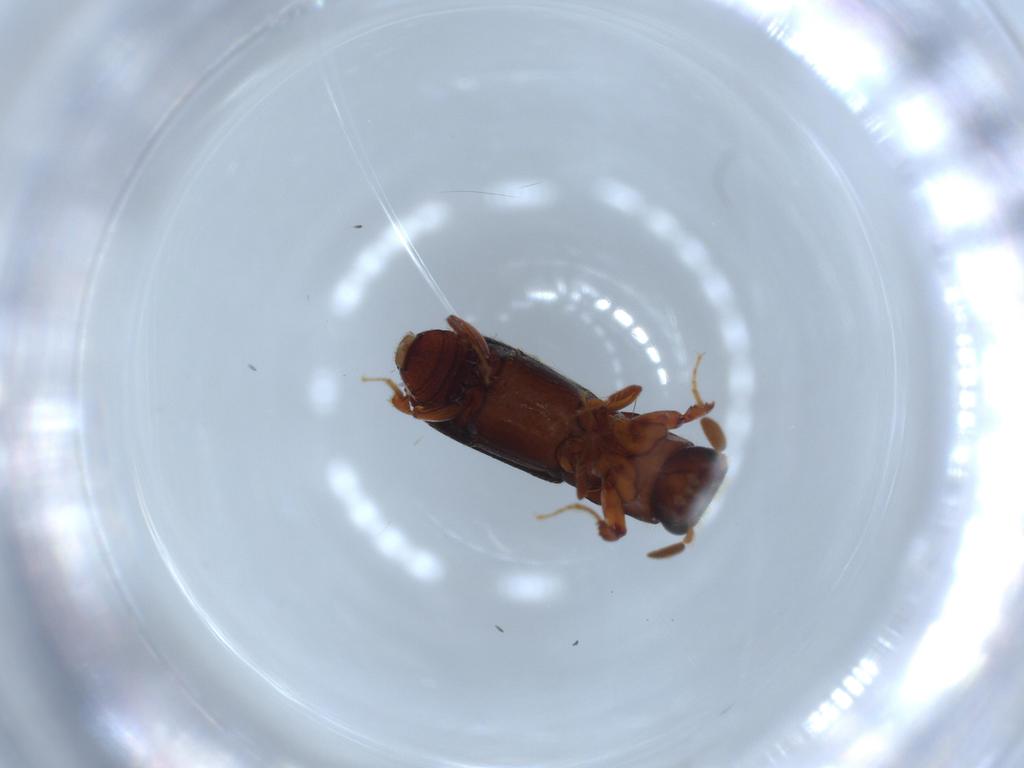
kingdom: Animalia
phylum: Arthropoda
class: Insecta
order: Coleoptera
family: Curculionidae
